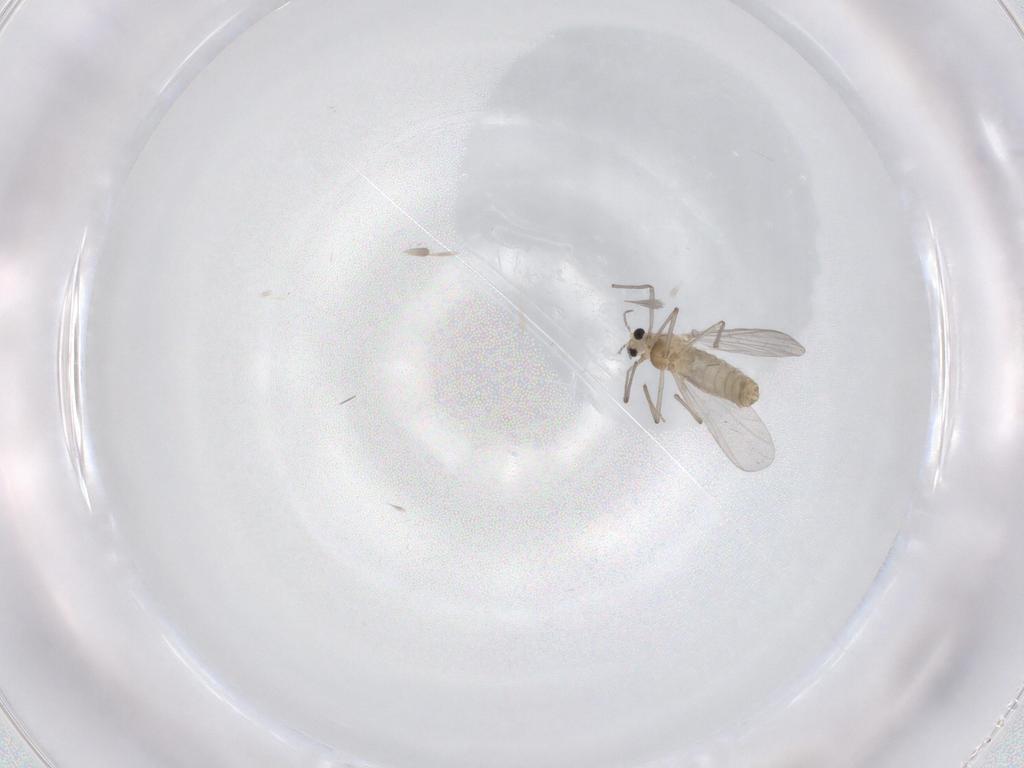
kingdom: Animalia
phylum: Arthropoda
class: Insecta
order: Diptera
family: Chironomidae
